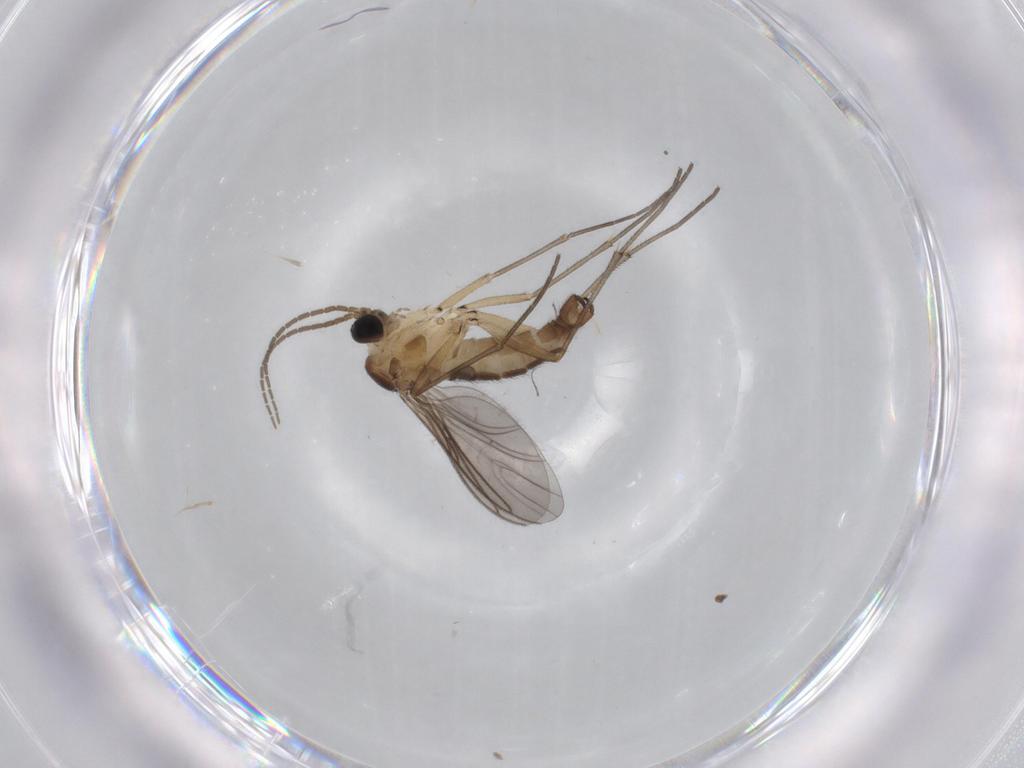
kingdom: Animalia
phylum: Arthropoda
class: Insecta
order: Diptera
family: Sciaridae
